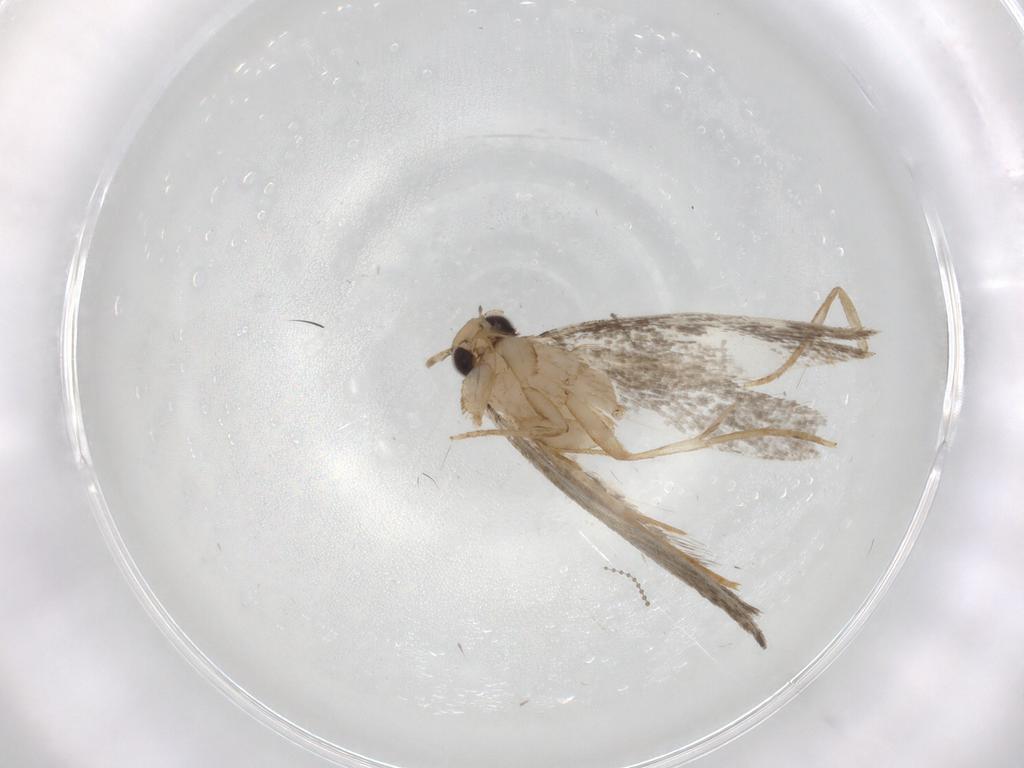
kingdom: Animalia
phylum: Arthropoda
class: Insecta
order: Lepidoptera
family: Tineidae
